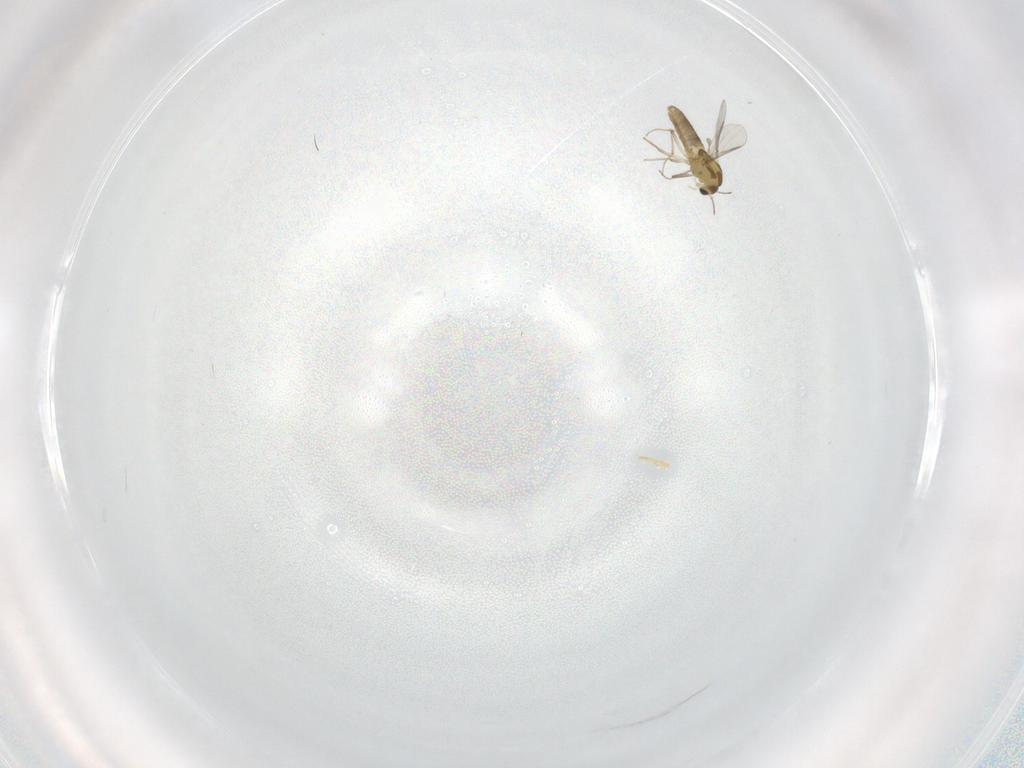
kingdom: Animalia
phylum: Arthropoda
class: Insecta
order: Diptera
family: Chironomidae
